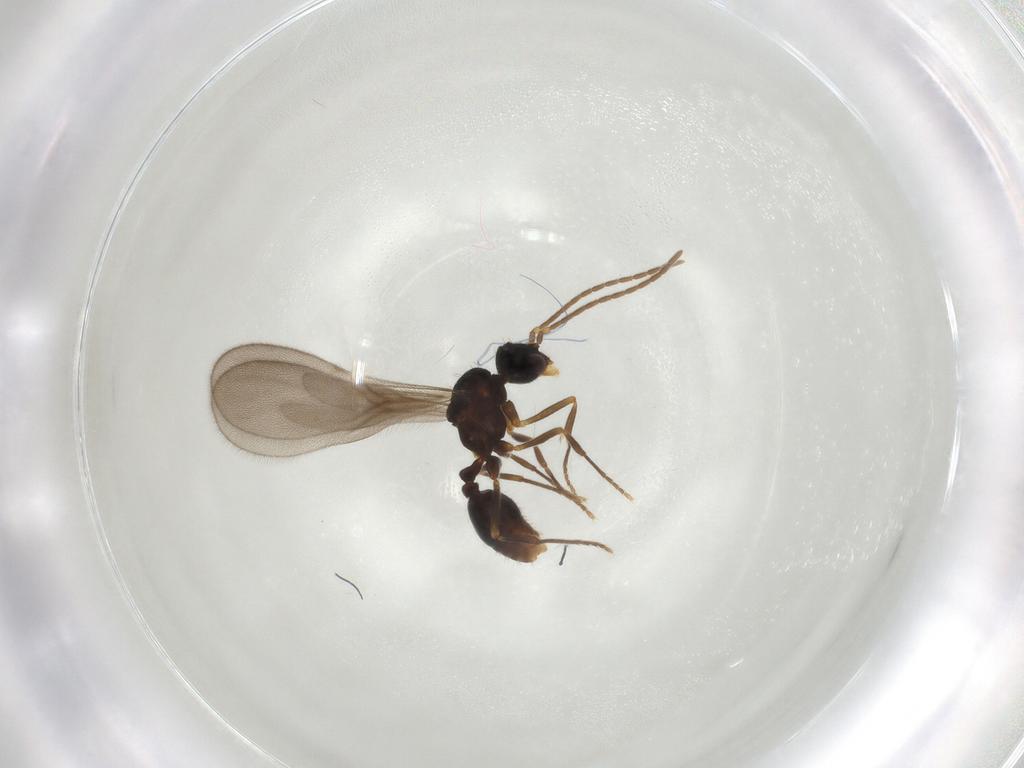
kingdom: Animalia
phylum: Arthropoda
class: Insecta
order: Hymenoptera
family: Formicidae
